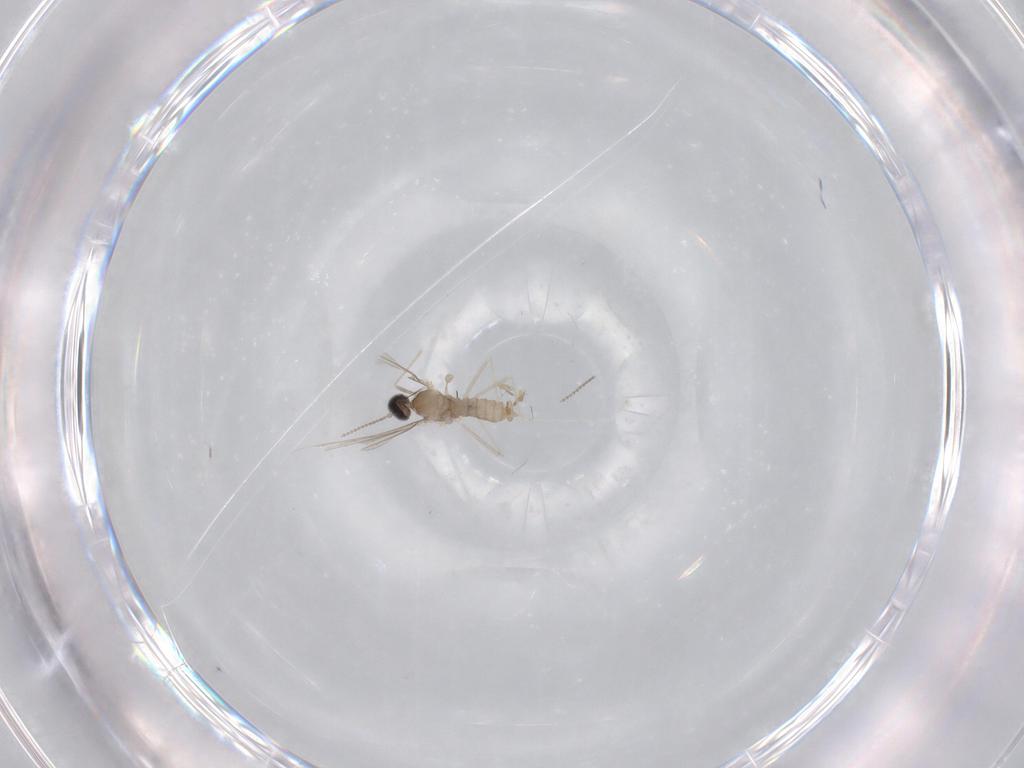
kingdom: Animalia
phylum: Arthropoda
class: Insecta
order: Diptera
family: Cecidomyiidae
